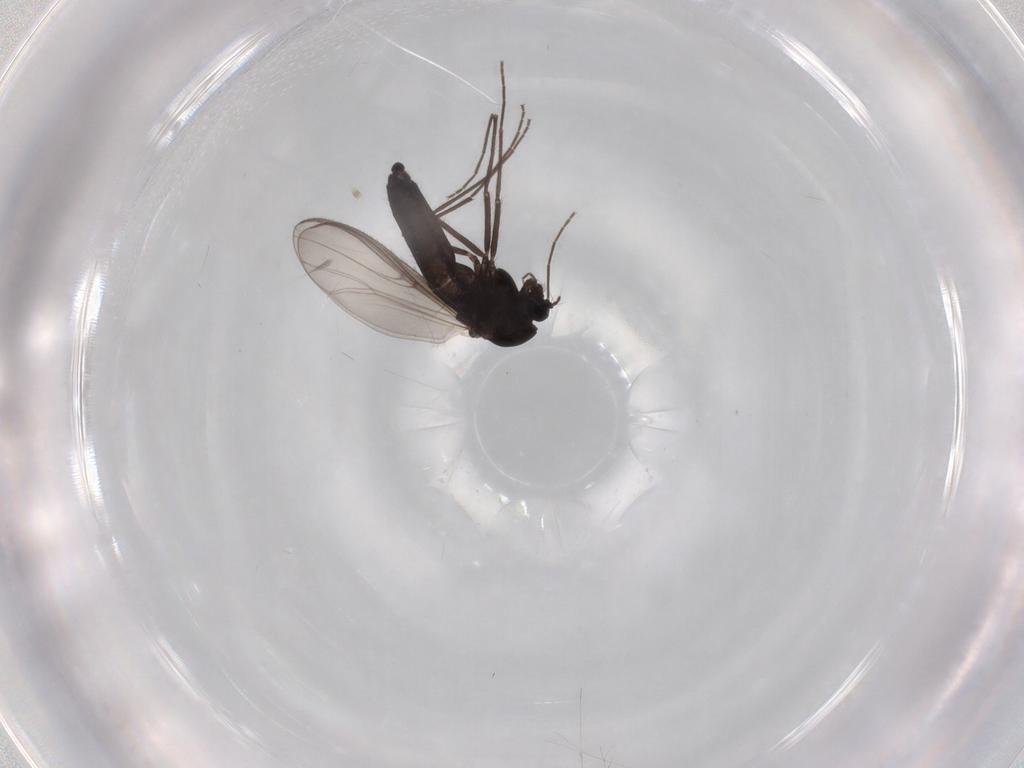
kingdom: Animalia
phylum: Arthropoda
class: Insecta
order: Diptera
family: Chironomidae
